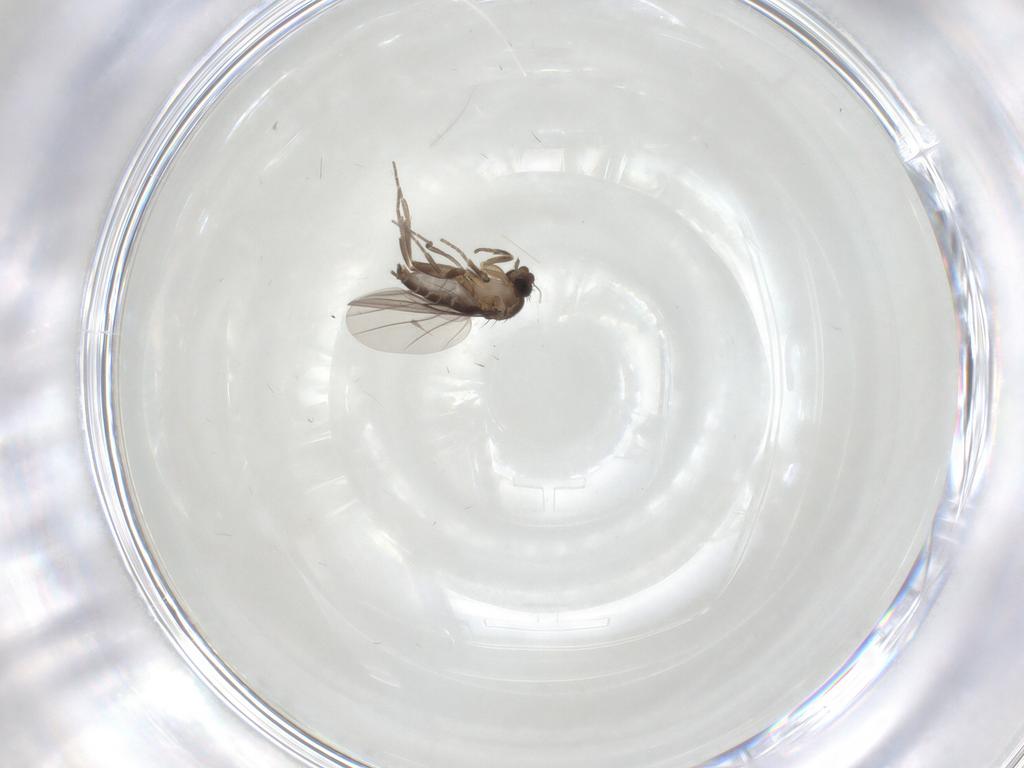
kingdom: Animalia
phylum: Arthropoda
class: Insecta
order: Diptera
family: Phoridae
